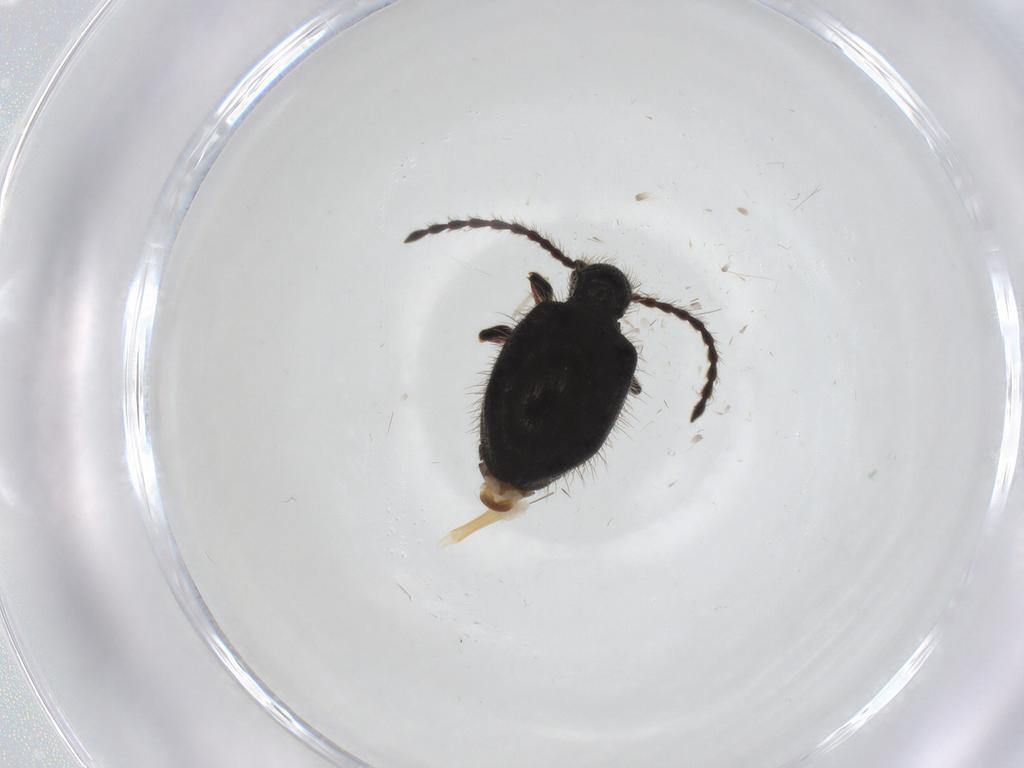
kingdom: Animalia
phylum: Arthropoda
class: Insecta
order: Coleoptera
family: Ptinidae
